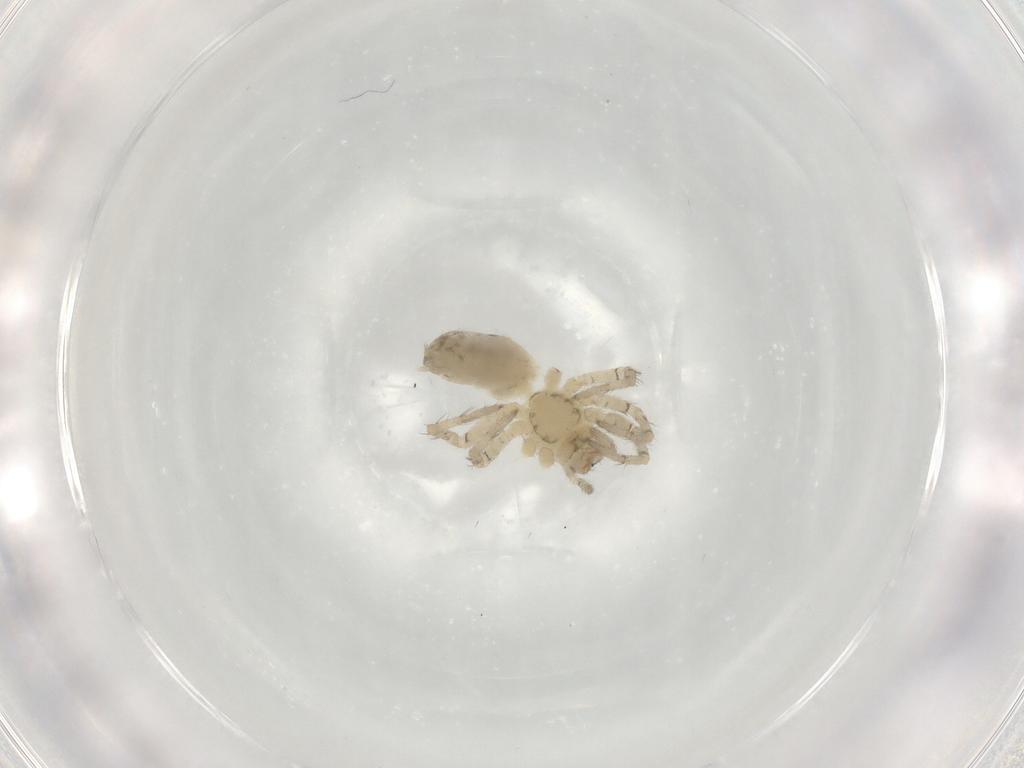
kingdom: Animalia
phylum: Arthropoda
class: Arachnida
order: Araneae
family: Anyphaenidae
